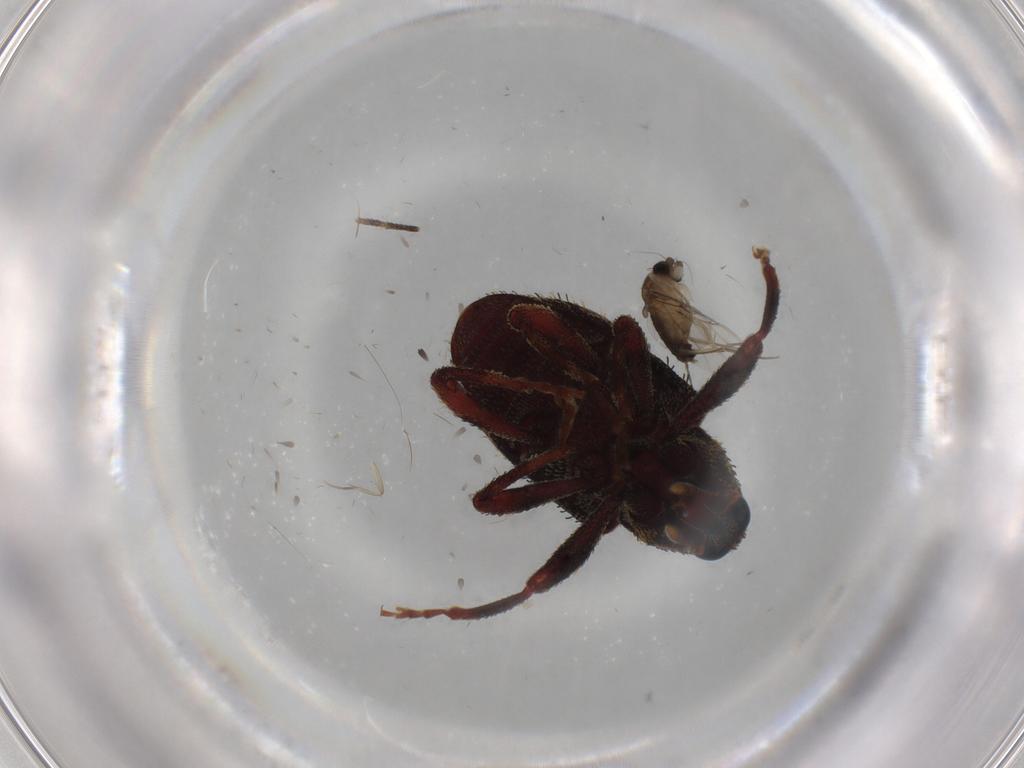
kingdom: Animalia
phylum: Arthropoda
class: Insecta
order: Coleoptera
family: Curculionidae
